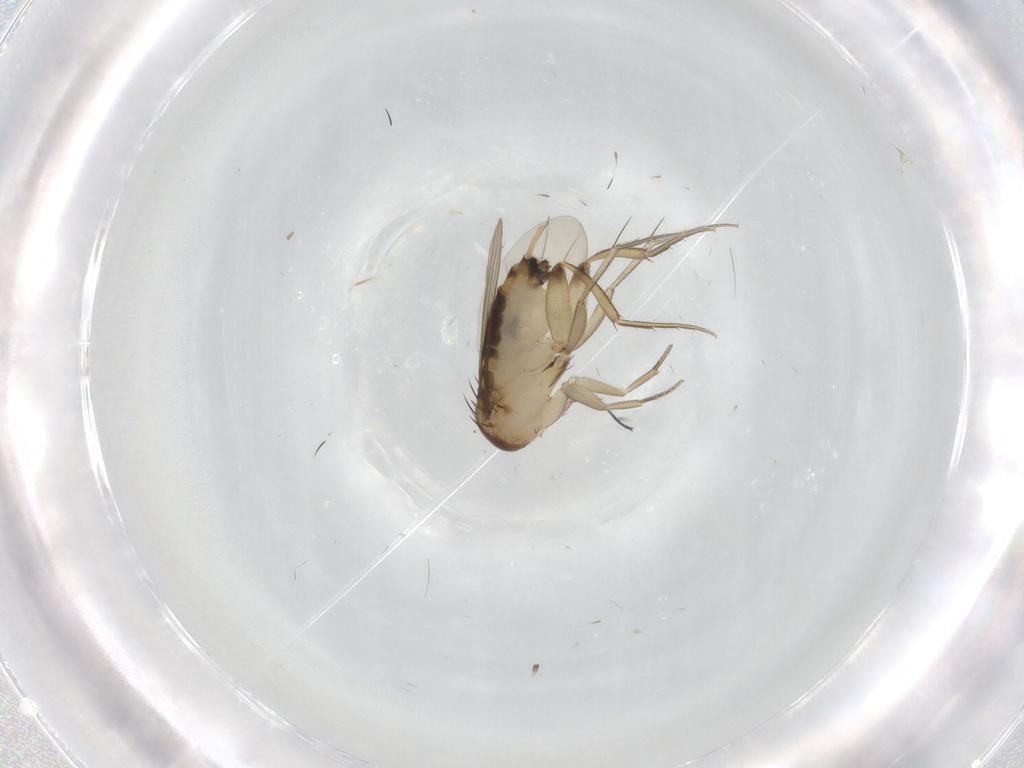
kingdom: Animalia
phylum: Arthropoda
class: Insecta
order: Diptera
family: Phoridae
